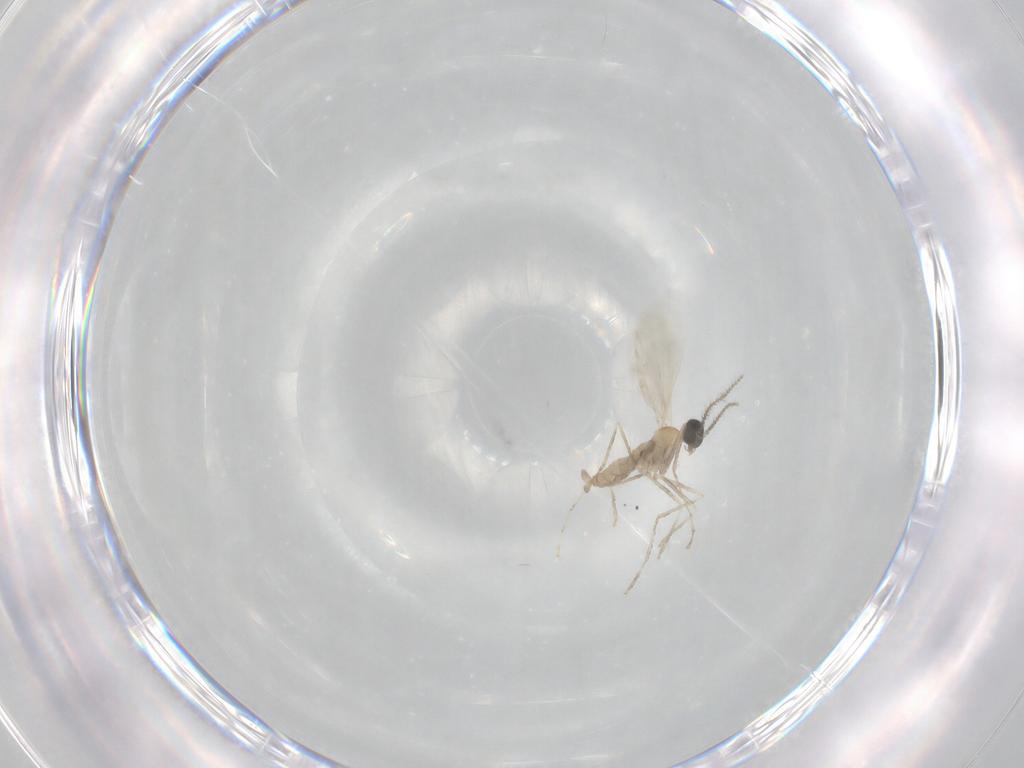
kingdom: Animalia
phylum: Arthropoda
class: Insecta
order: Diptera
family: Cecidomyiidae
